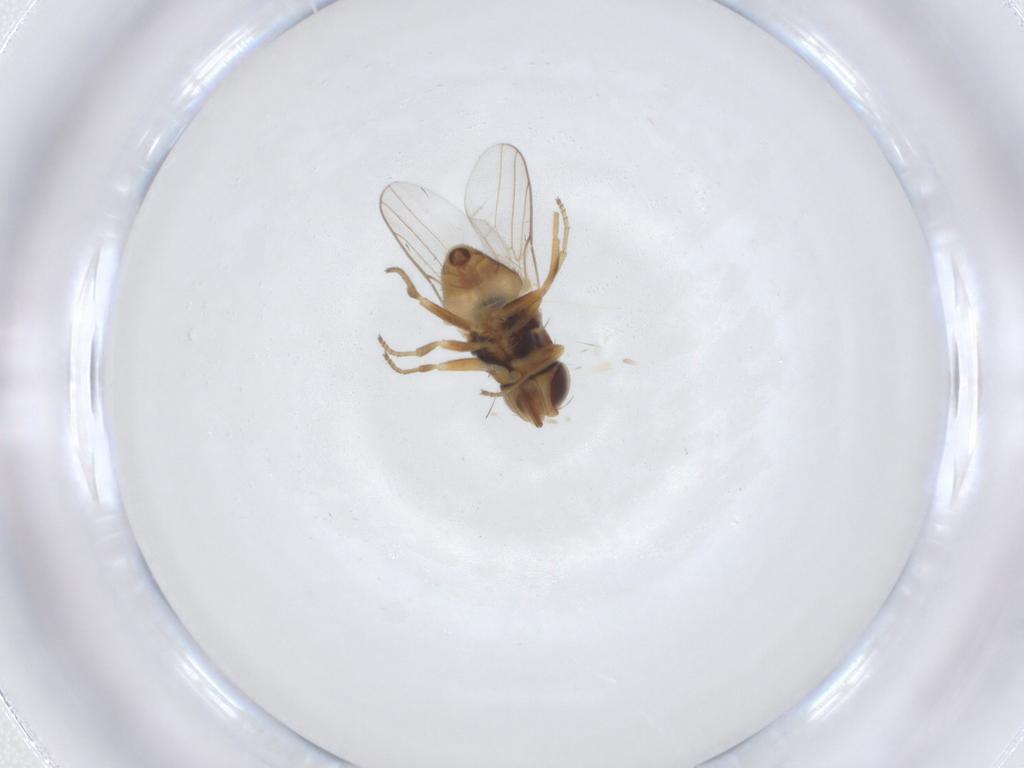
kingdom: Animalia
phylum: Arthropoda
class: Insecta
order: Diptera
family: Chloropidae
